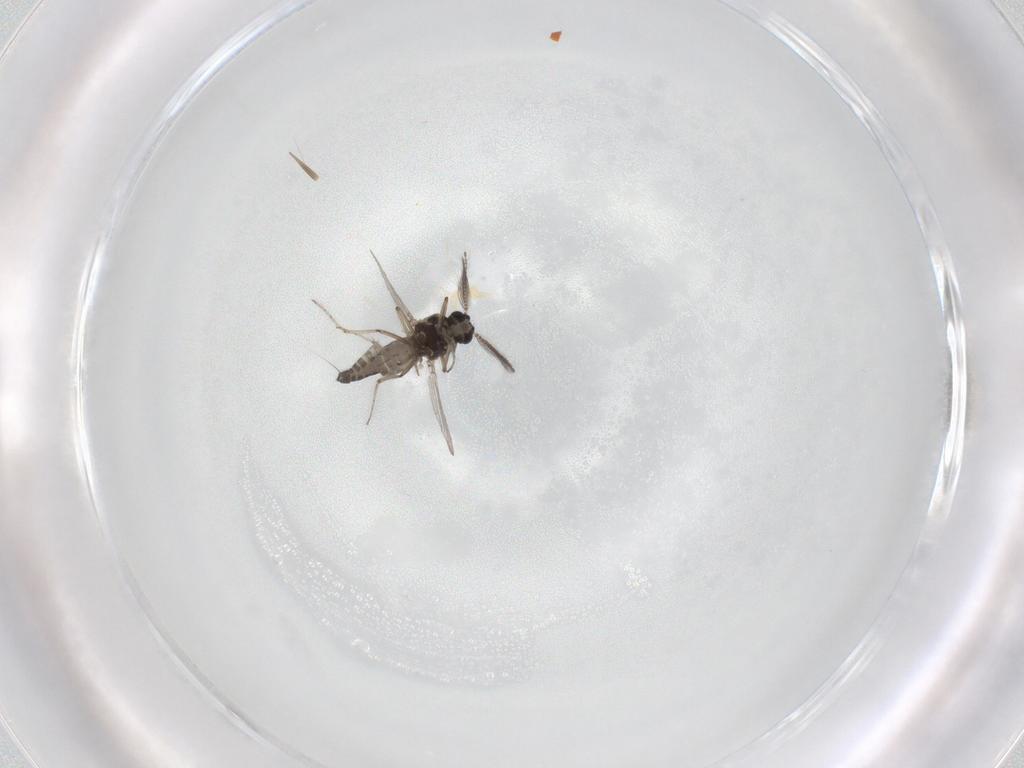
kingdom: Animalia
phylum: Arthropoda
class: Insecta
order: Diptera
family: Ceratopogonidae
